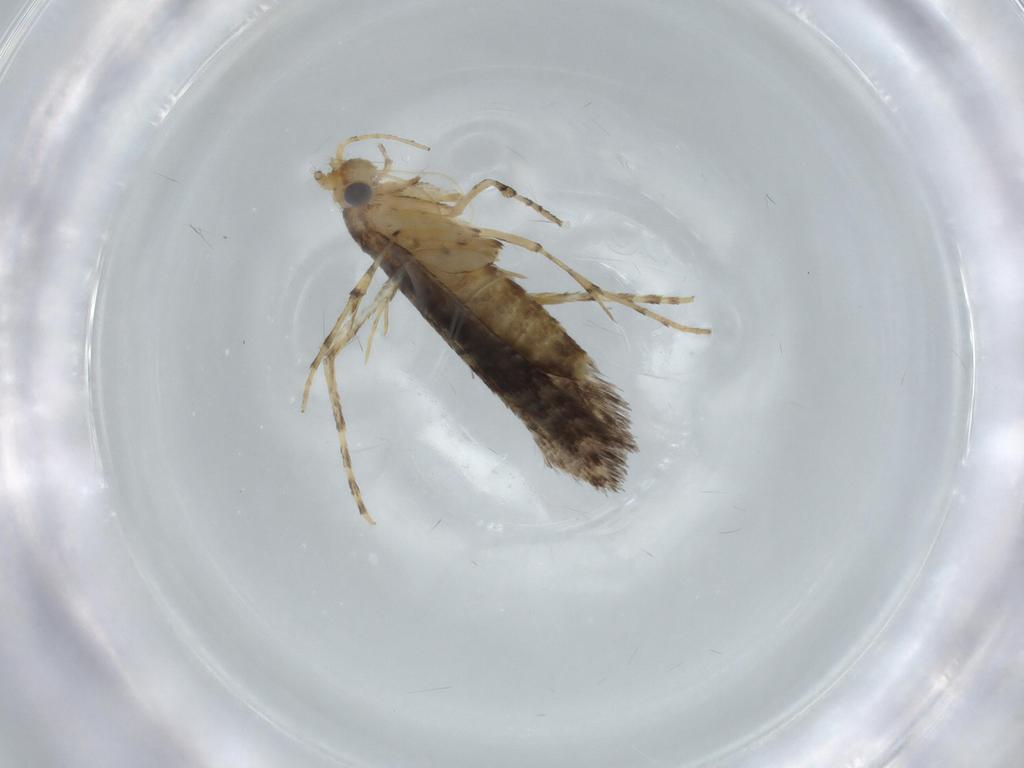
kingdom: Animalia
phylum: Arthropoda
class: Insecta
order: Lepidoptera
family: Argyresthiidae
